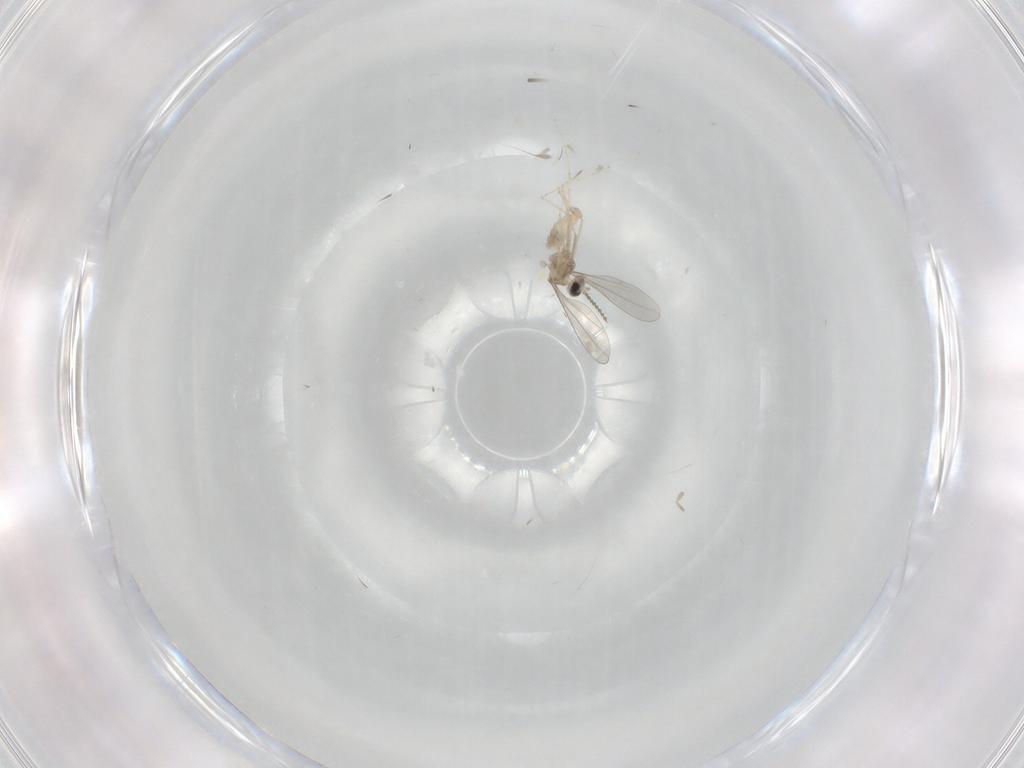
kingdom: Animalia
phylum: Arthropoda
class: Insecta
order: Diptera
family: Cecidomyiidae
